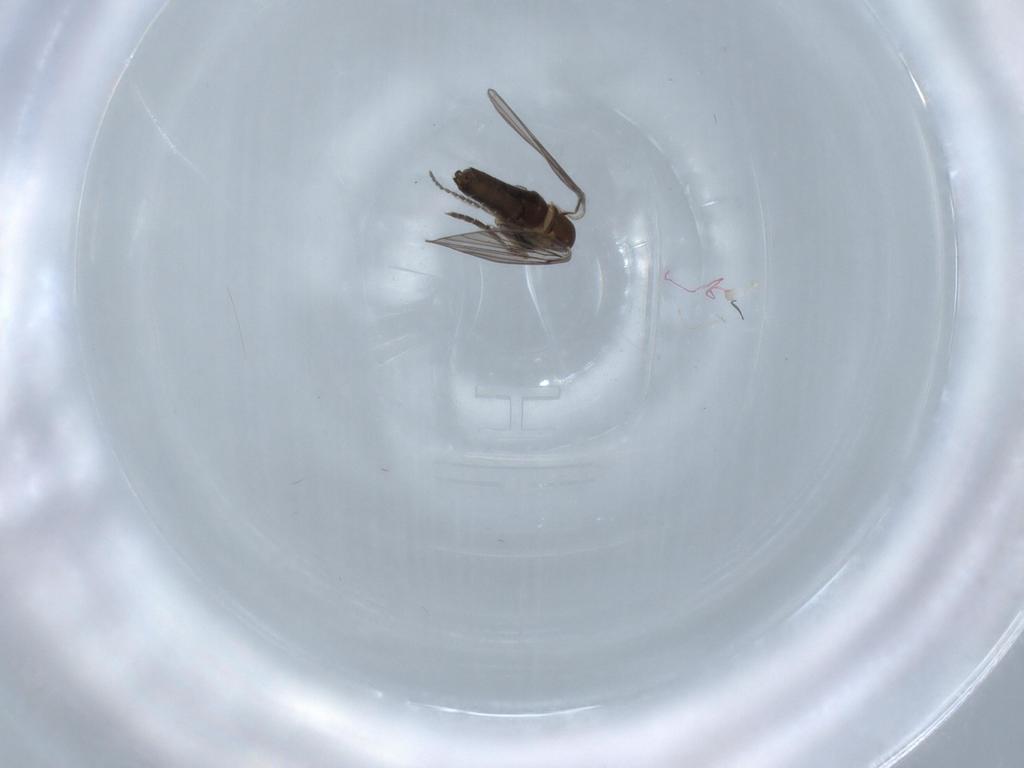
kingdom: Animalia
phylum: Arthropoda
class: Insecta
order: Diptera
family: Psychodidae
